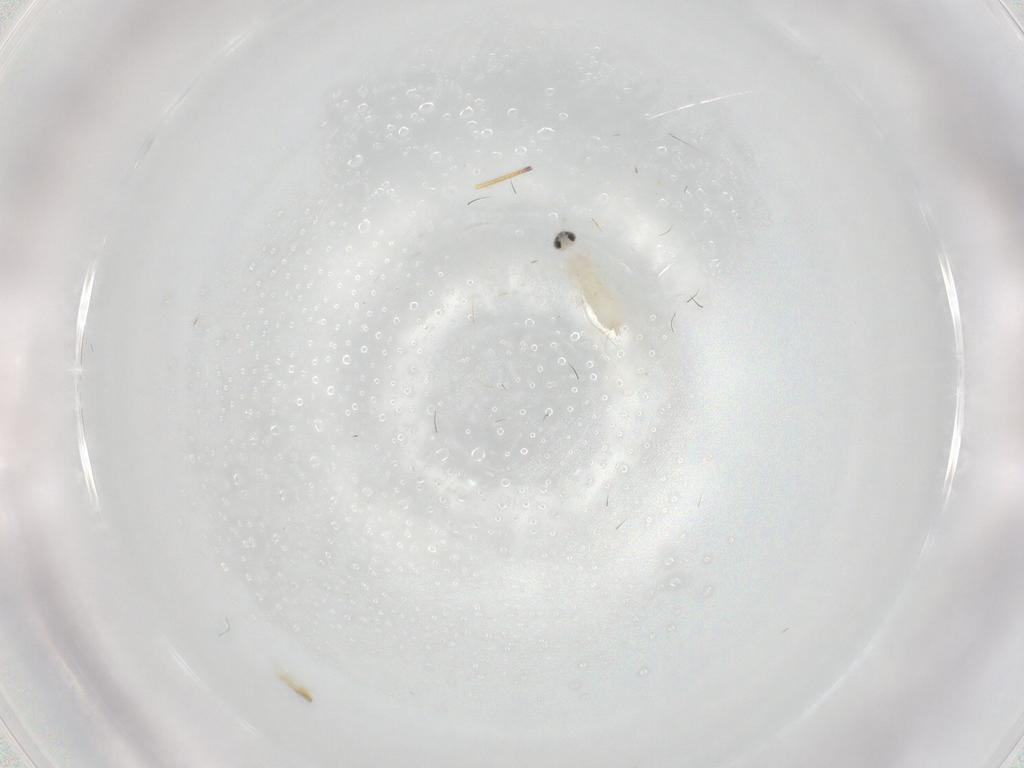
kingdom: Animalia
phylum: Arthropoda
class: Insecta
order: Diptera
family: Cecidomyiidae
